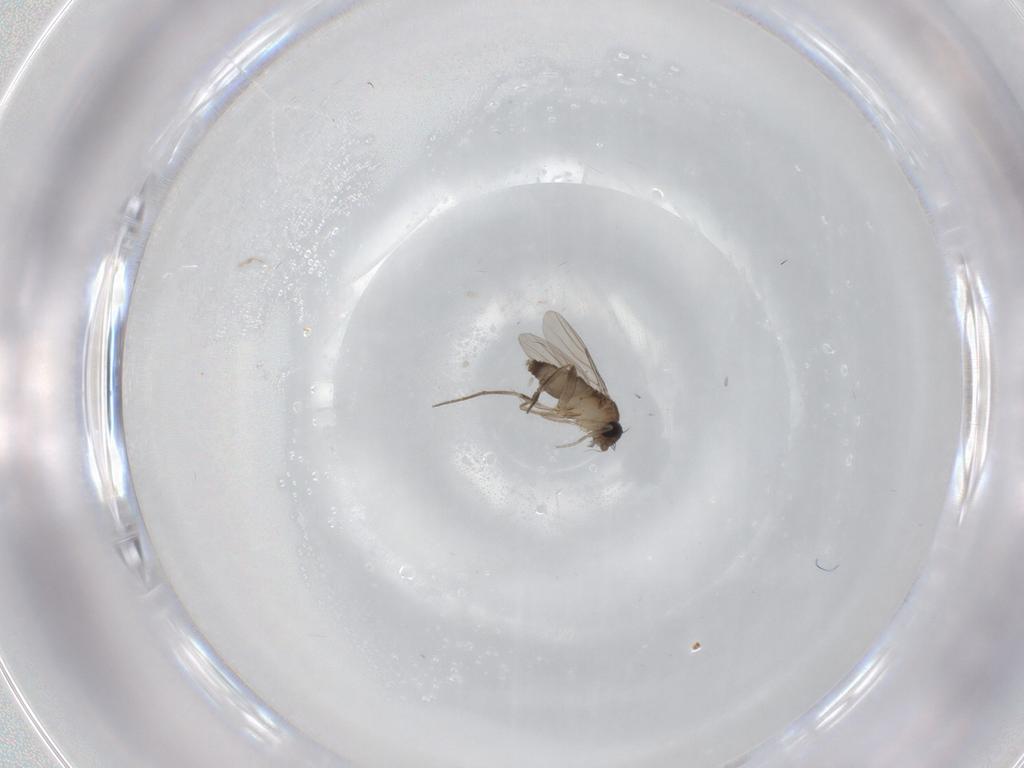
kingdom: Animalia
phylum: Arthropoda
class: Insecta
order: Diptera
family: Phoridae
